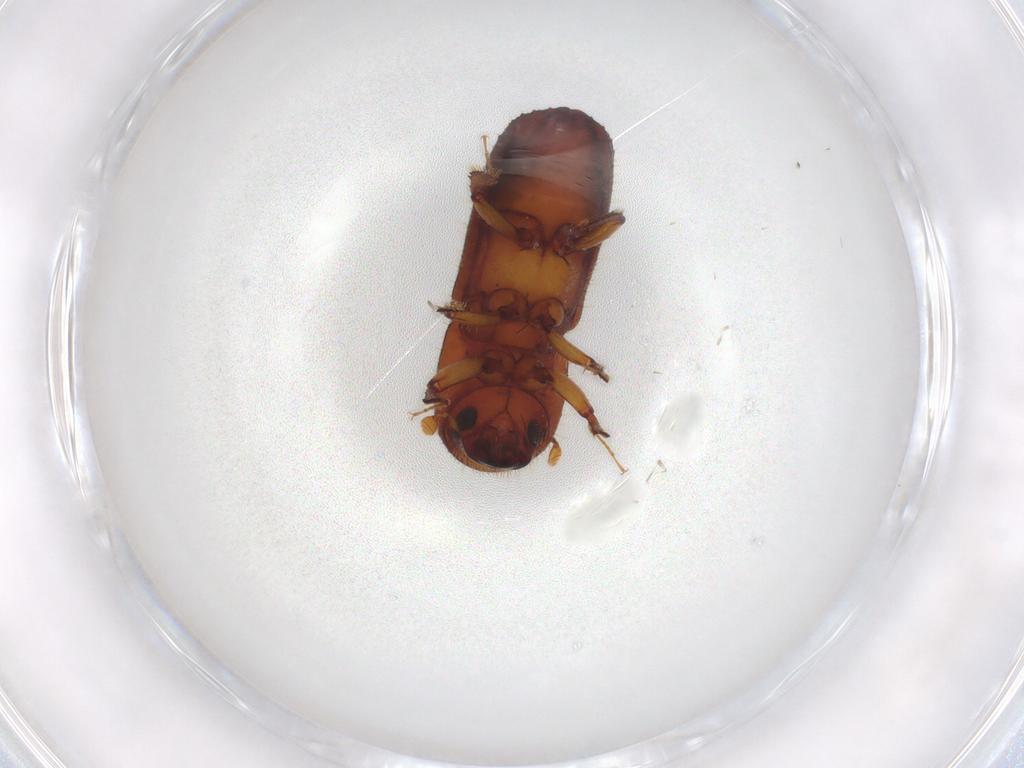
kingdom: Animalia
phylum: Arthropoda
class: Insecta
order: Coleoptera
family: Curculionidae
